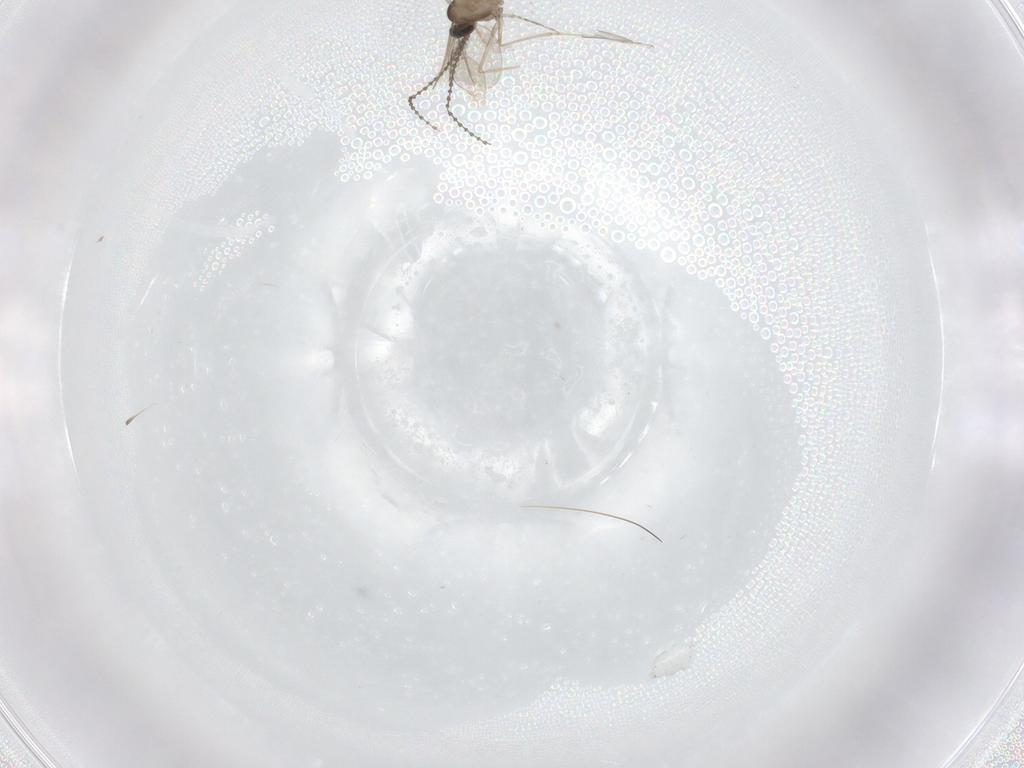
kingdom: Animalia
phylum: Arthropoda
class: Insecta
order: Diptera
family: Cecidomyiidae
